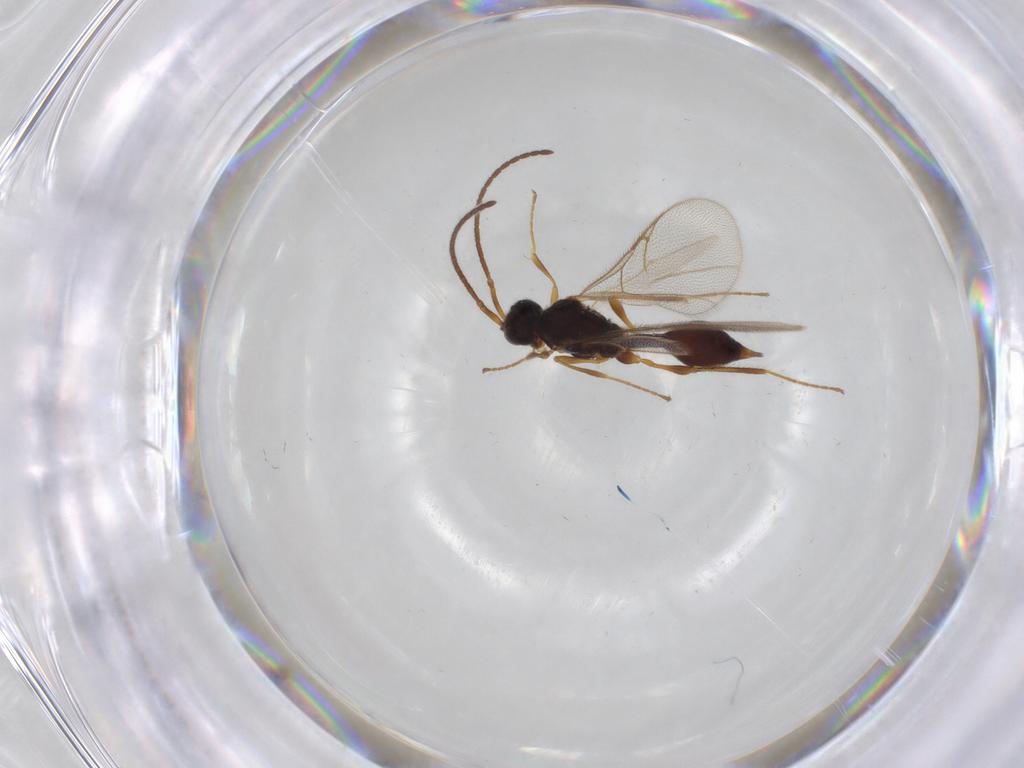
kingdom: Animalia
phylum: Arthropoda
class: Insecta
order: Hymenoptera
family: Diapriidae
